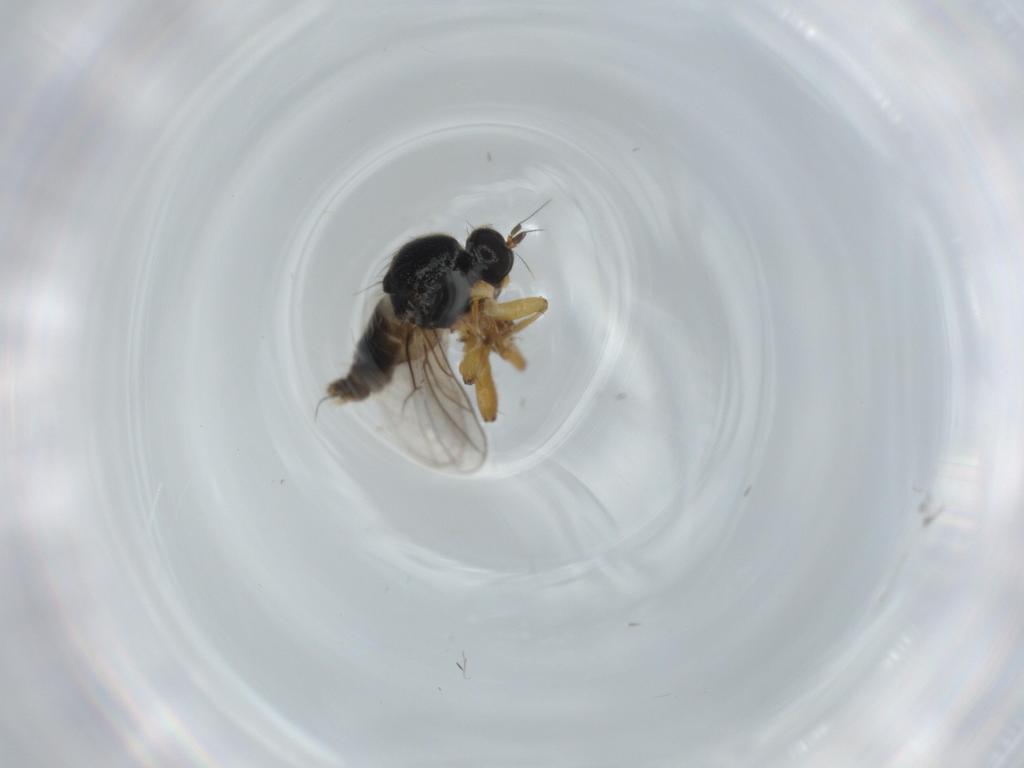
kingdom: Animalia
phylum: Arthropoda
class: Insecta
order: Diptera
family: Hybotidae
